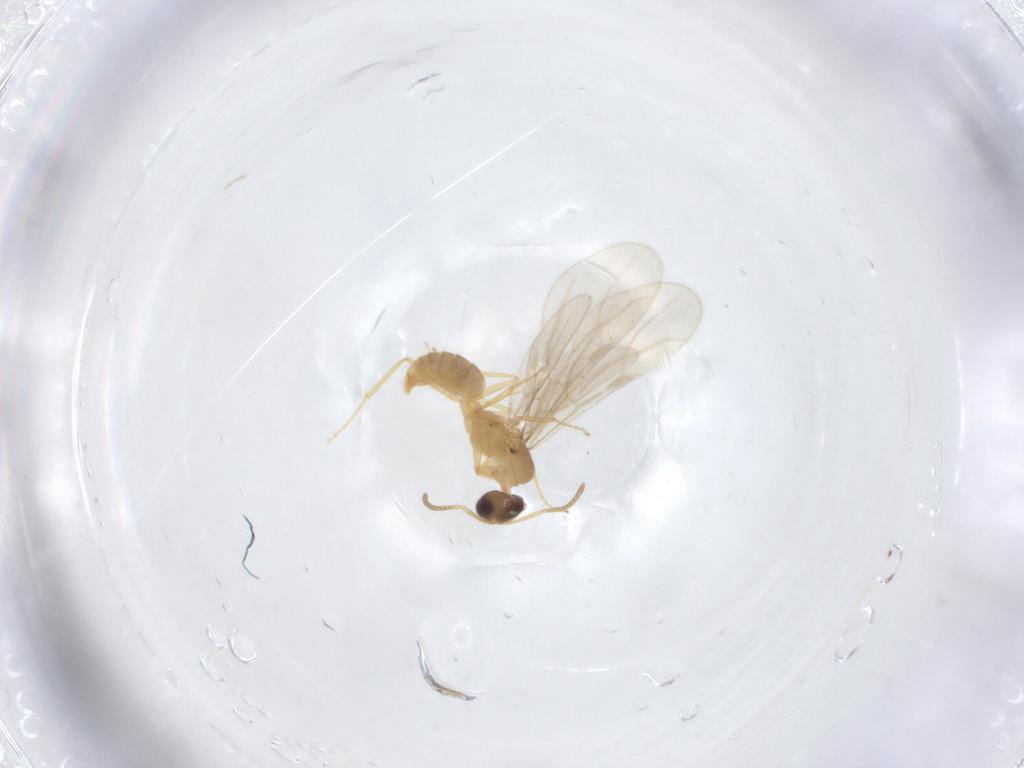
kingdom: Animalia
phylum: Arthropoda
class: Insecta
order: Hymenoptera
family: Formicidae
